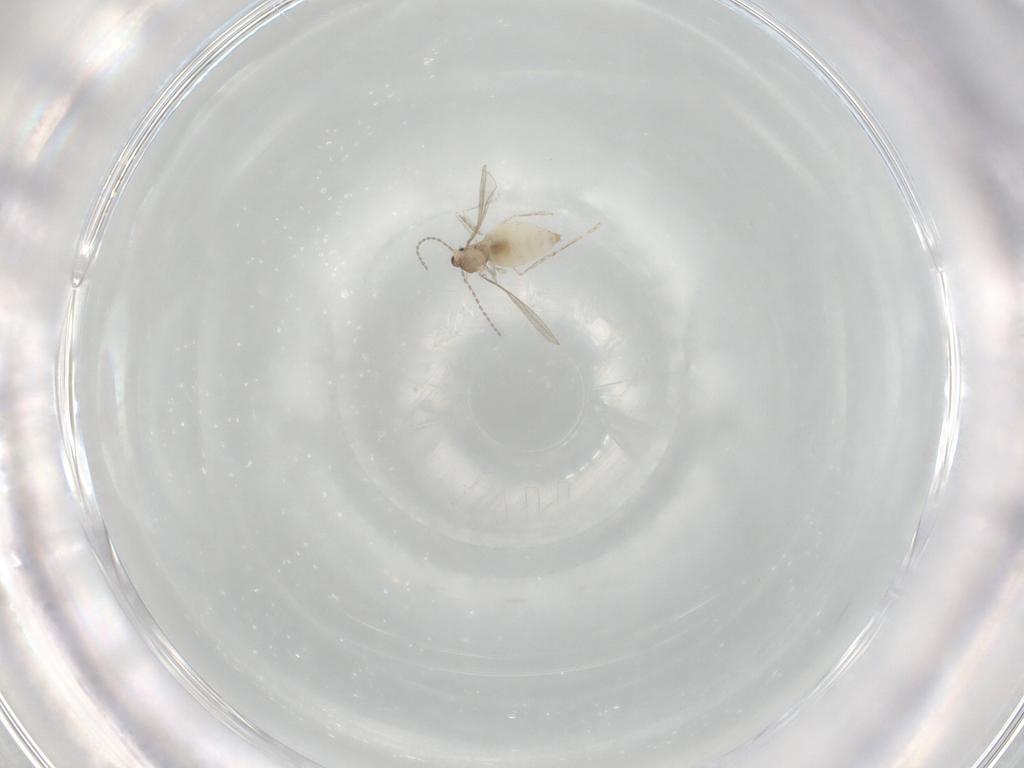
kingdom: Animalia
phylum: Arthropoda
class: Insecta
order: Diptera
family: Cecidomyiidae
